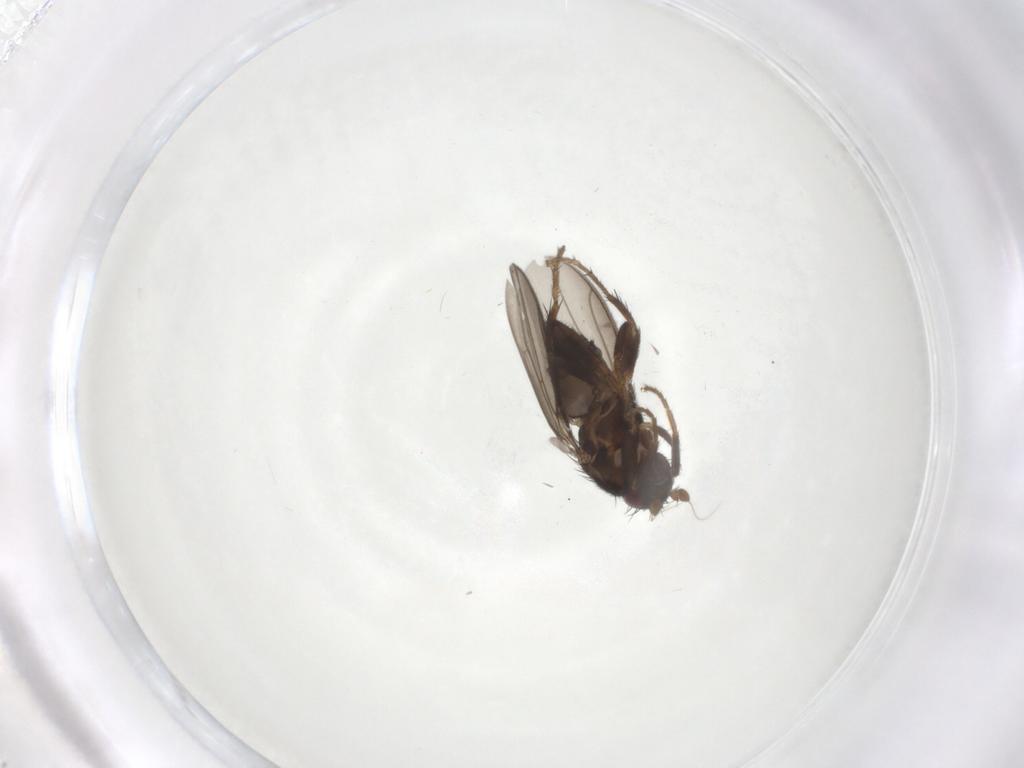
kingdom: Animalia
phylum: Arthropoda
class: Insecta
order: Diptera
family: Sphaeroceridae
